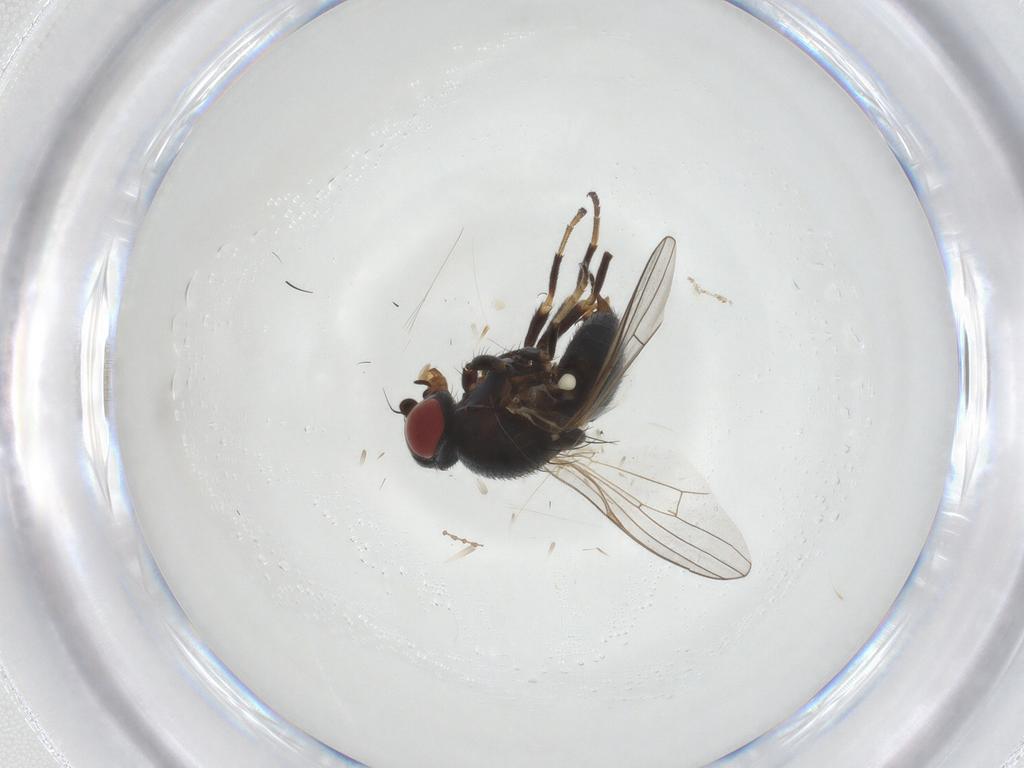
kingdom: Animalia
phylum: Arthropoda
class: Insecta
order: Diptera
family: Chamaemyiidae
